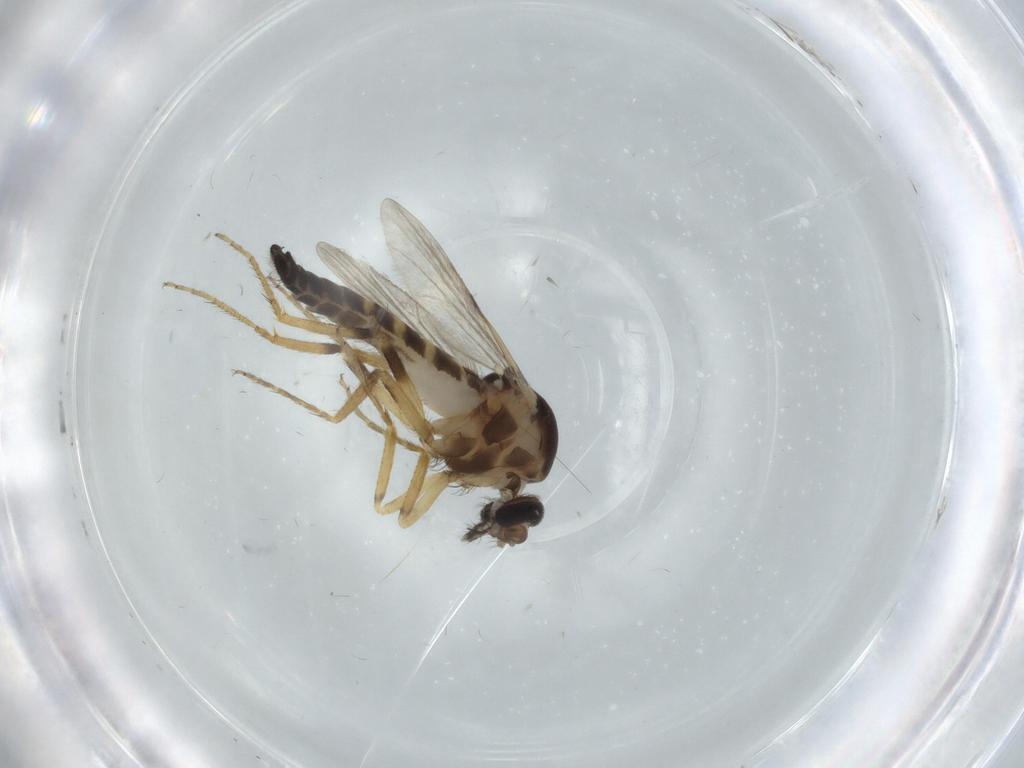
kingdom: Animalia
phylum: Arthropoda
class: Insecta
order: Diptera
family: Ceratopogonidae
